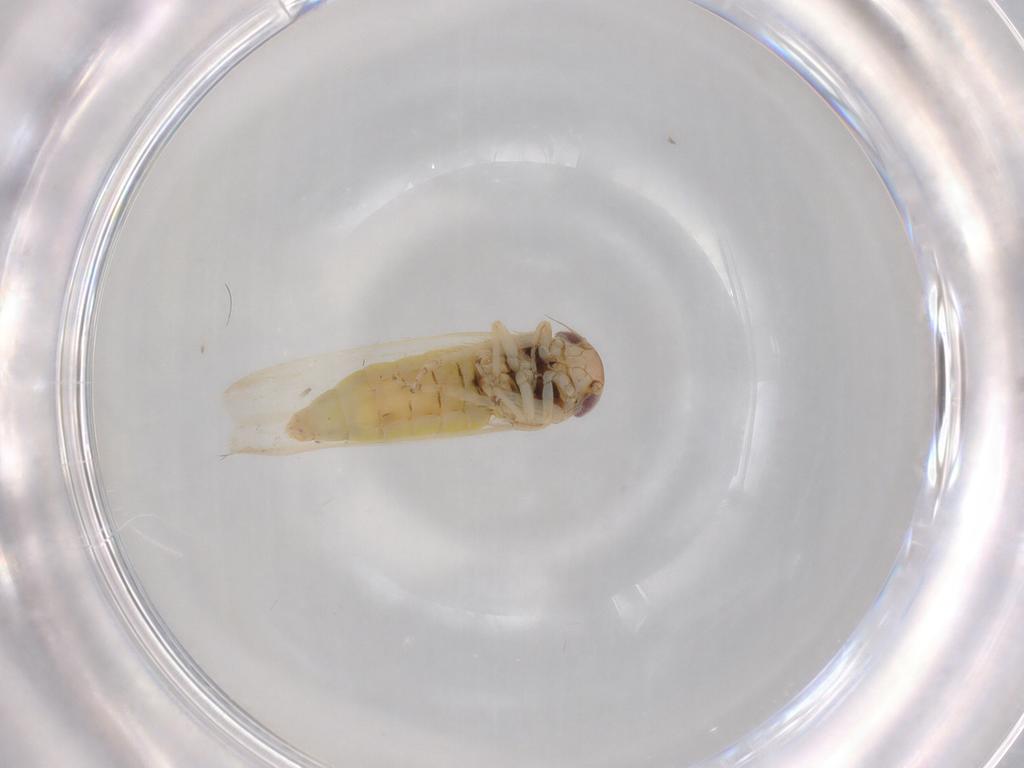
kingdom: Animalia
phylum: Arthropoda
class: Insecta
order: Hemiptera
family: Cicadellidae
